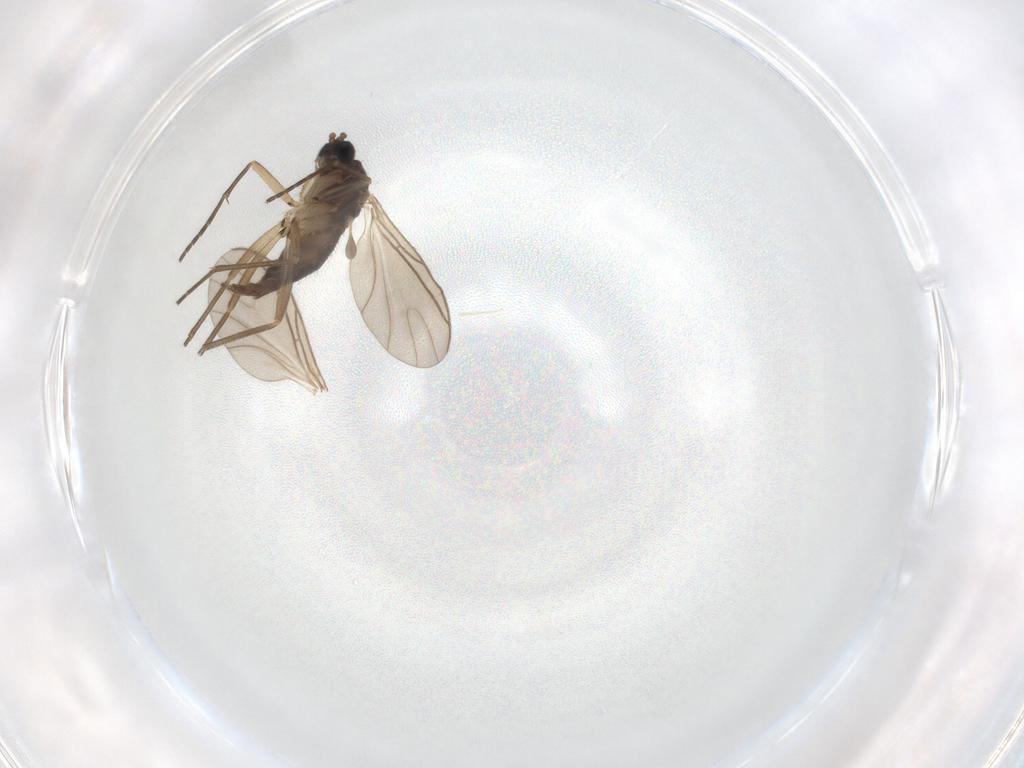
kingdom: Animalia
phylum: Arthropoda
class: Insecta
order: Diptera
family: Sciaridae
